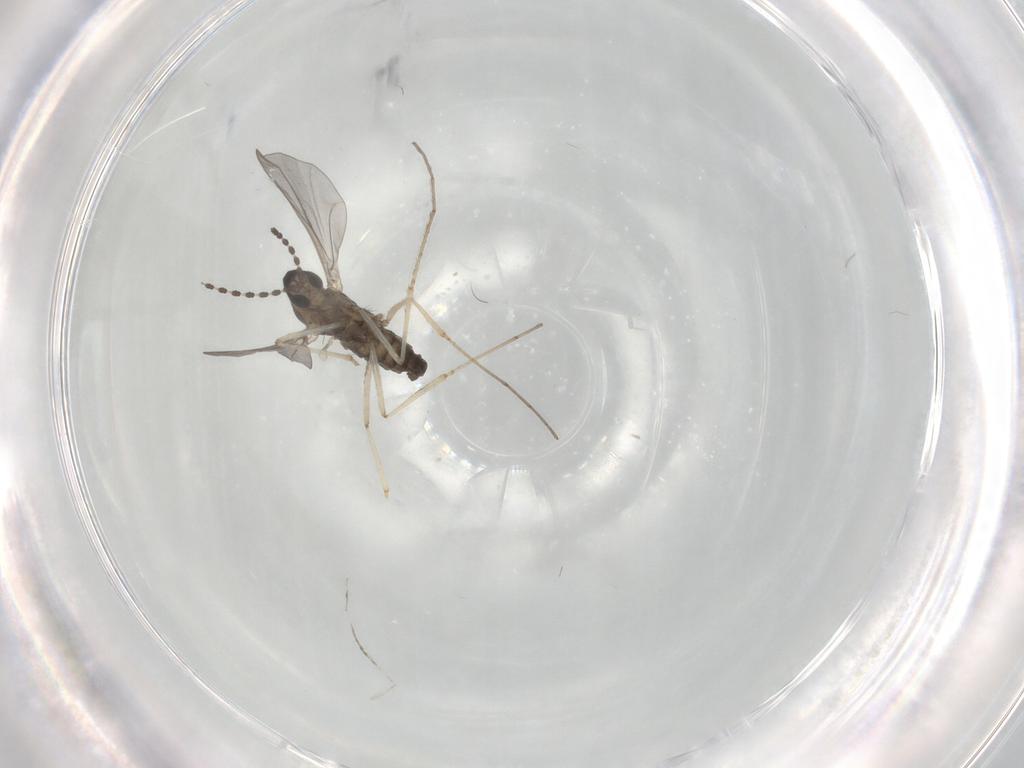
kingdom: Animalia
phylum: Arthropoda
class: Insecta
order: Diptera
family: Cecidomyiidae
